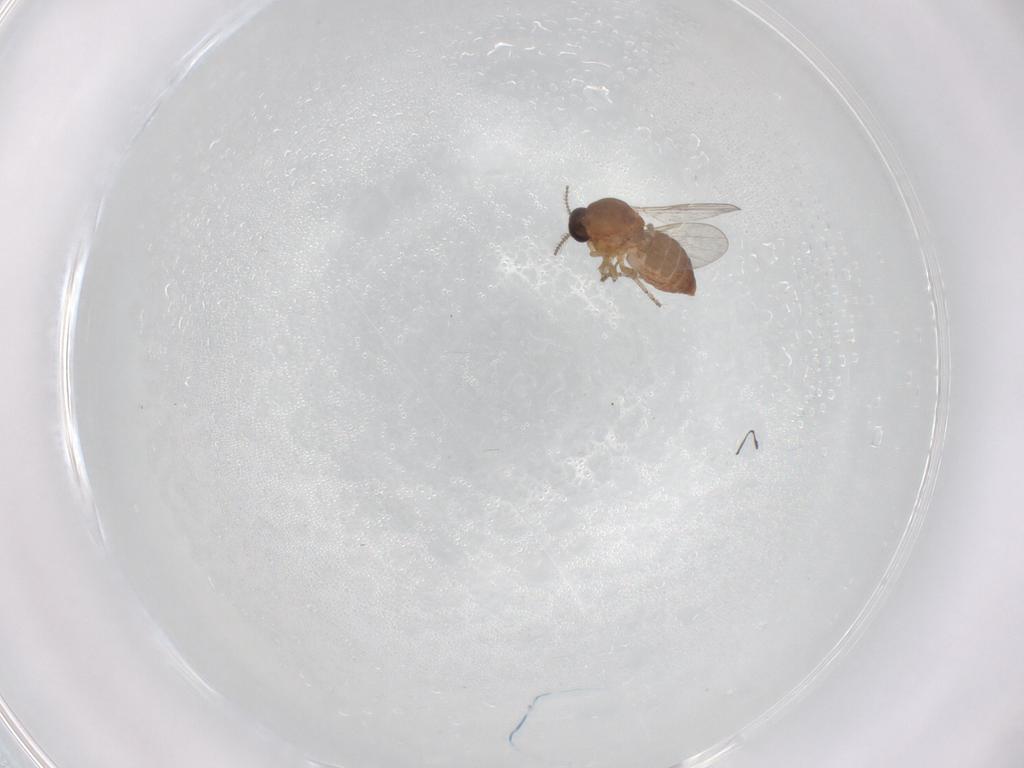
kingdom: Animalia
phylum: Arthropoda
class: Insecta
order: Diptera
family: Ceratopogonidae
